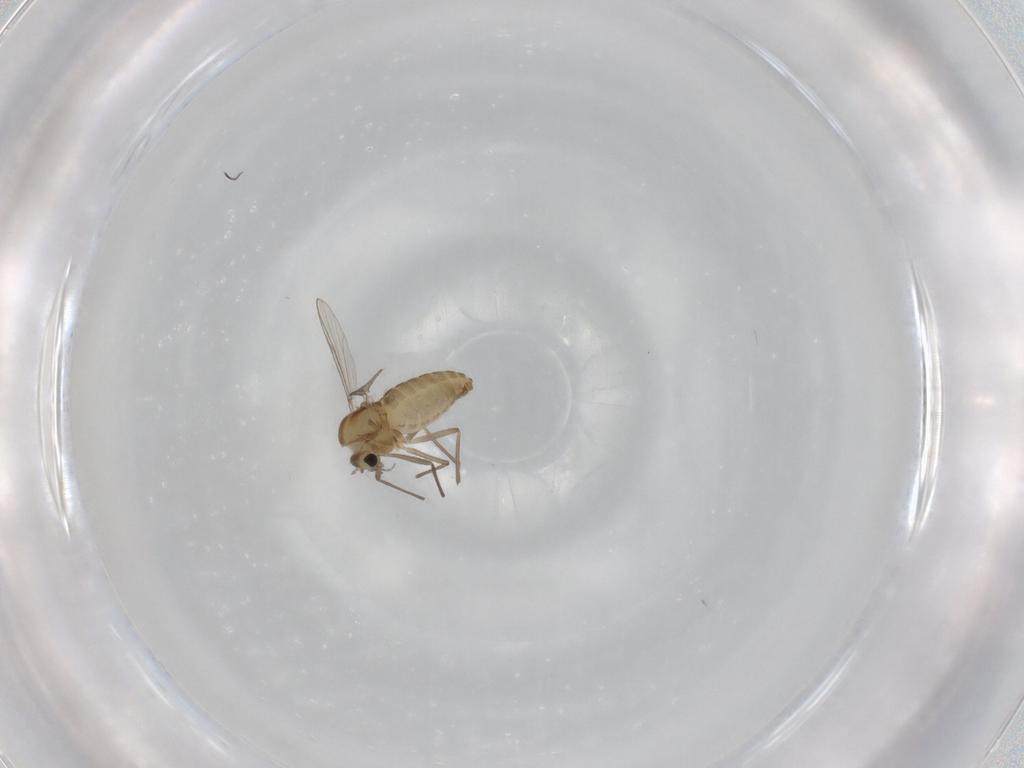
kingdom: Animalia
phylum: Arthropoda
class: Insecta
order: Diptera
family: Chironomidae
